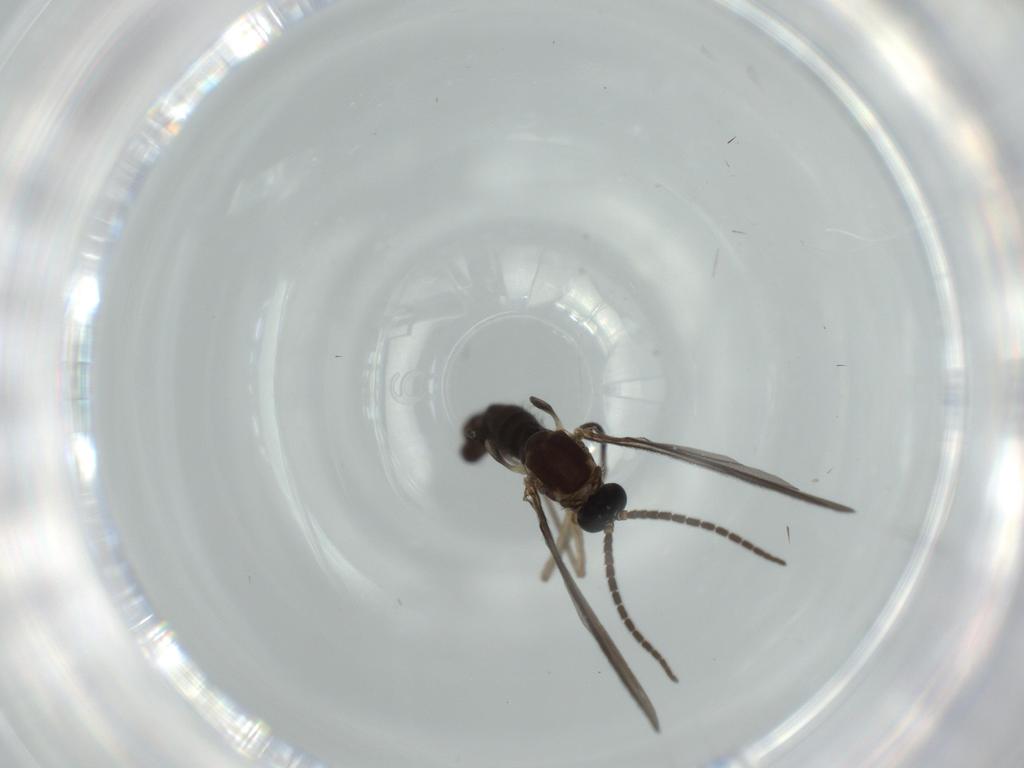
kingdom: Animalia
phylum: Arthropoda
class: Insecta
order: Diptera
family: Sciaridae
